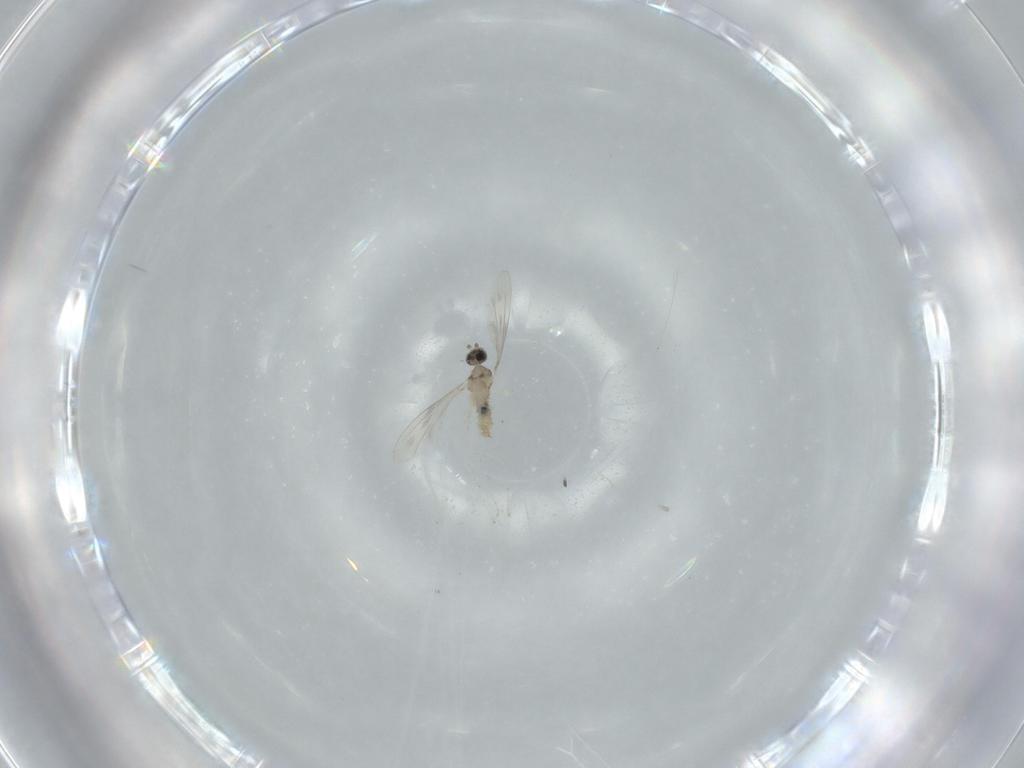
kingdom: Animalia
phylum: Arthropoda
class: Insecta
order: Diptera
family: Cecidomyiidae
